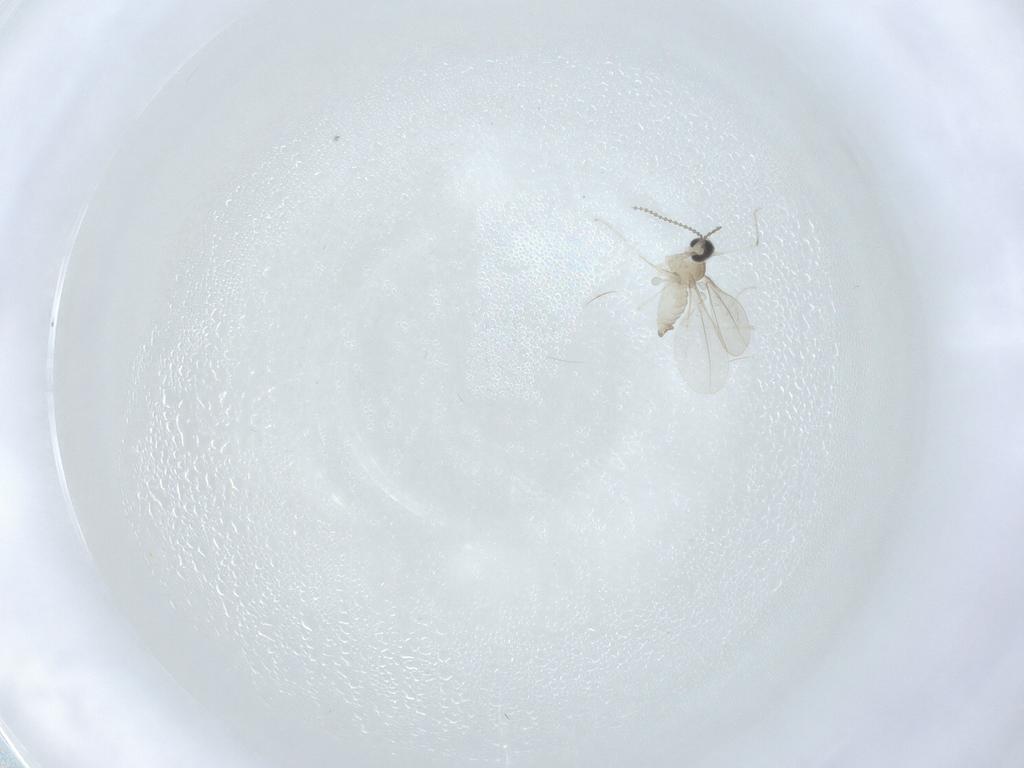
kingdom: Animalia
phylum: Arthropoda
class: Insecta
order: Diptera
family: Cecidomyiidae
